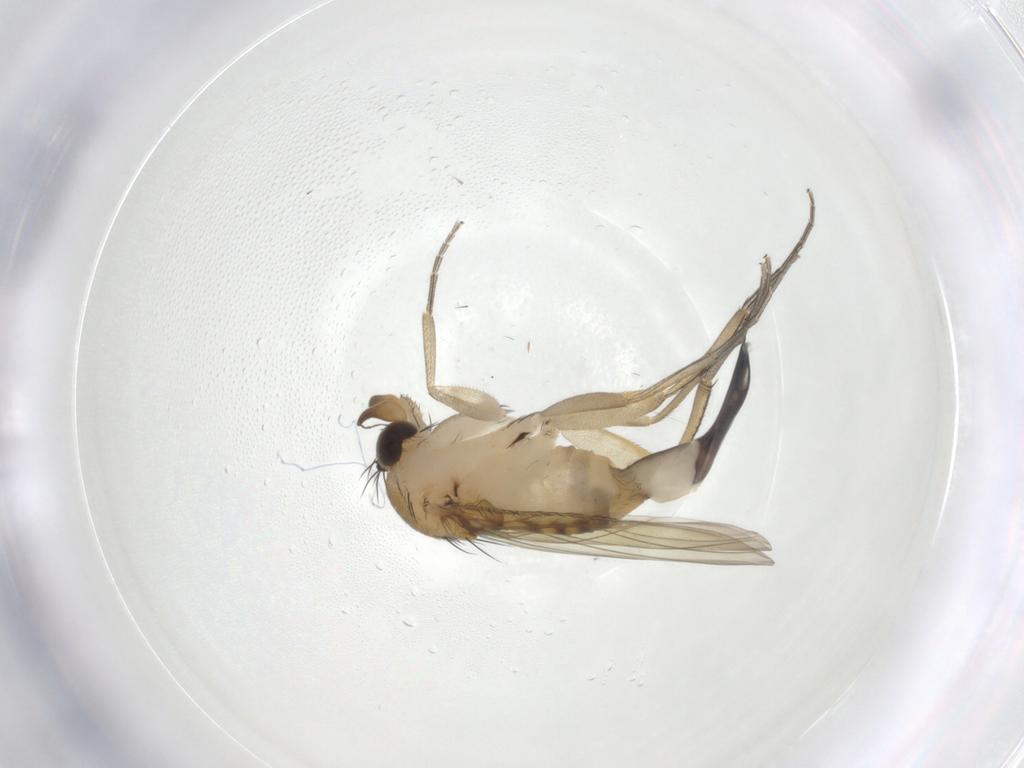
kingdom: Animalia
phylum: Arthropoda
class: Insecta
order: Diptera
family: Phoridae
